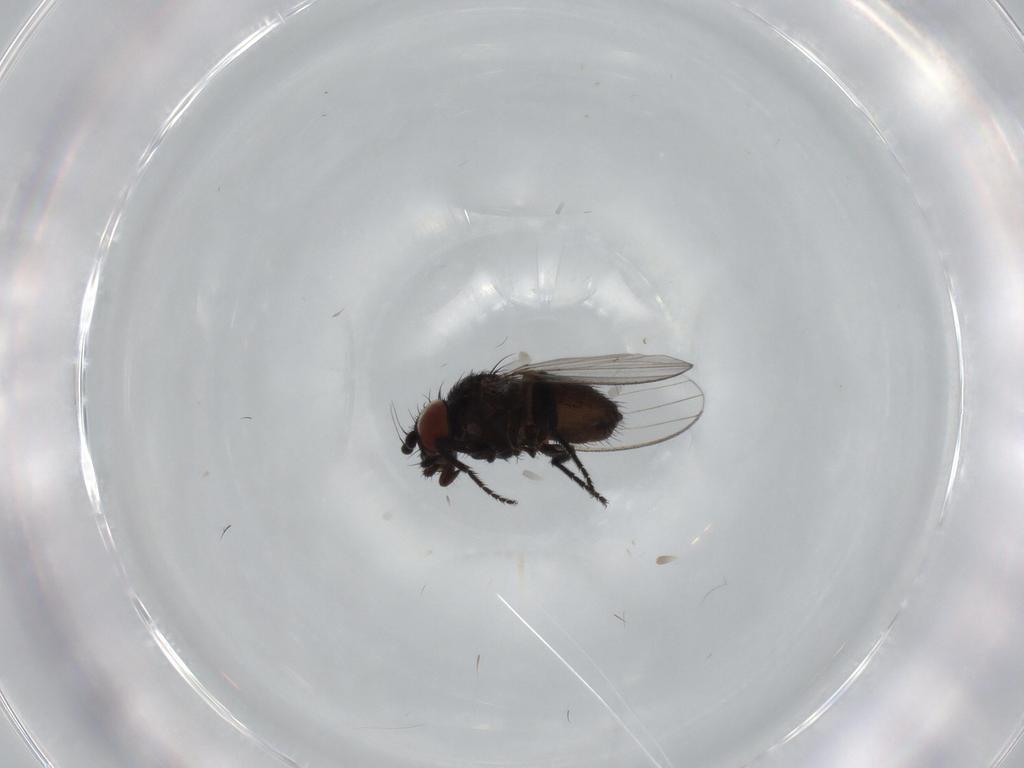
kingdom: Animalia
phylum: Arthropoda
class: Insecta
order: Diptera
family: Milichiidae
